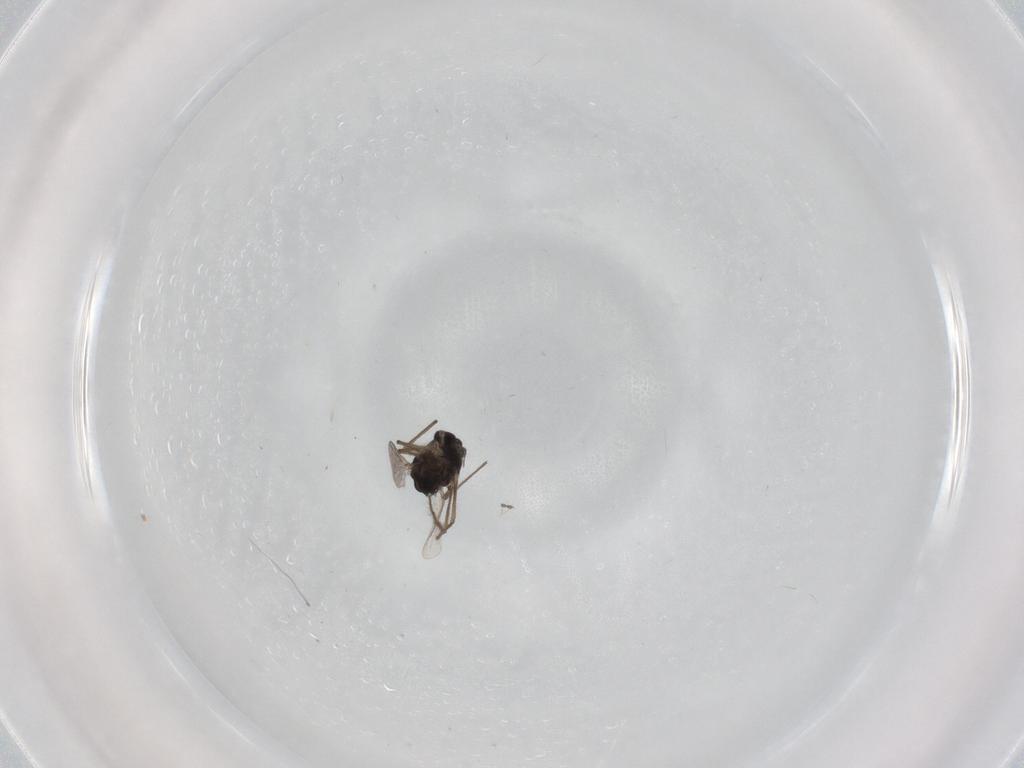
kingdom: Animalia
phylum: Arthropoda
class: Insecta
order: Diptera
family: Chironomidae
